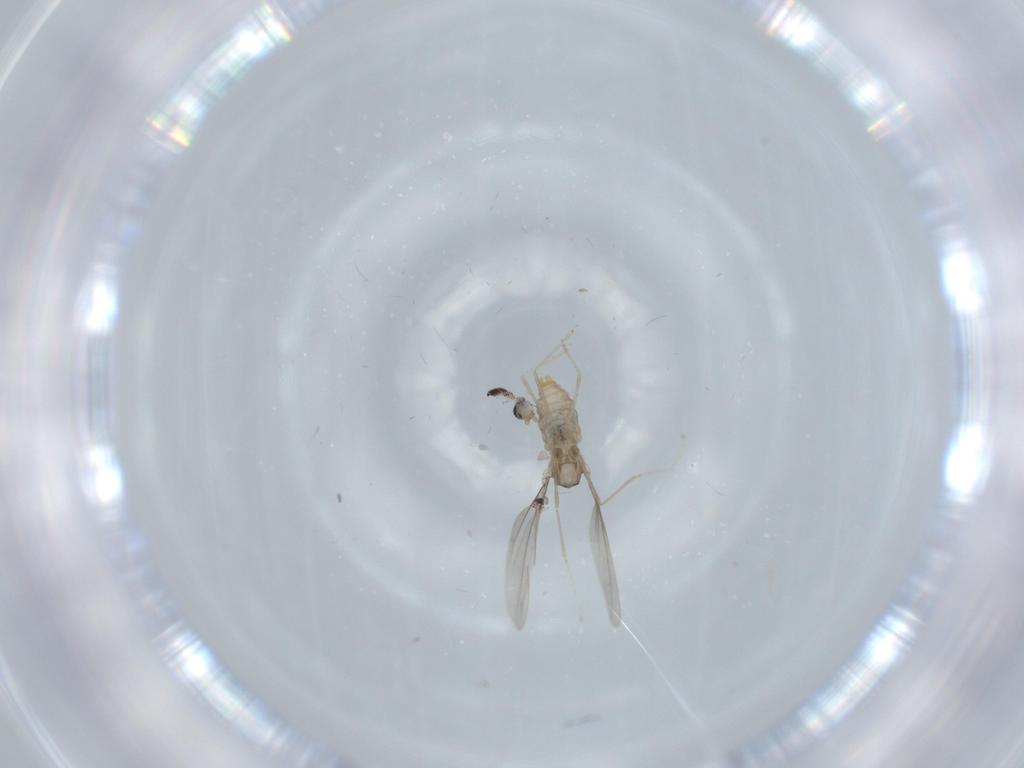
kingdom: Animalia
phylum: Arthropoda
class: Insecta
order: Diptera
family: Cecidomyiidae
